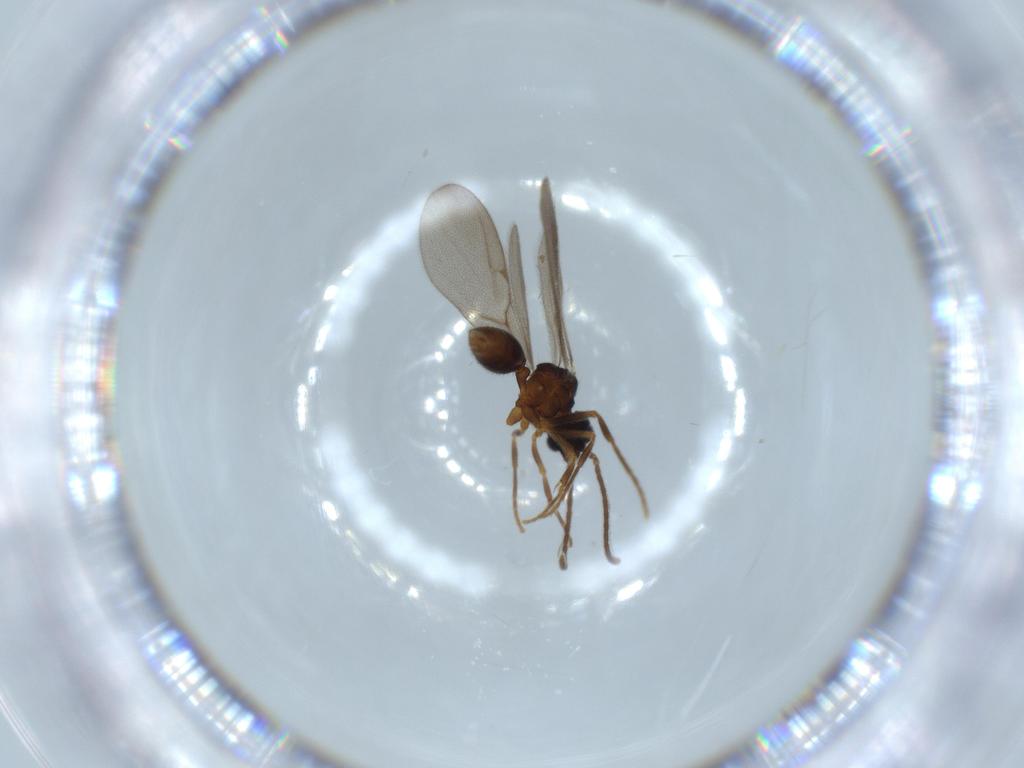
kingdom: Animalia
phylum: Arthropoda
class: Insecta
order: Hymenoptera
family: Formicidae
